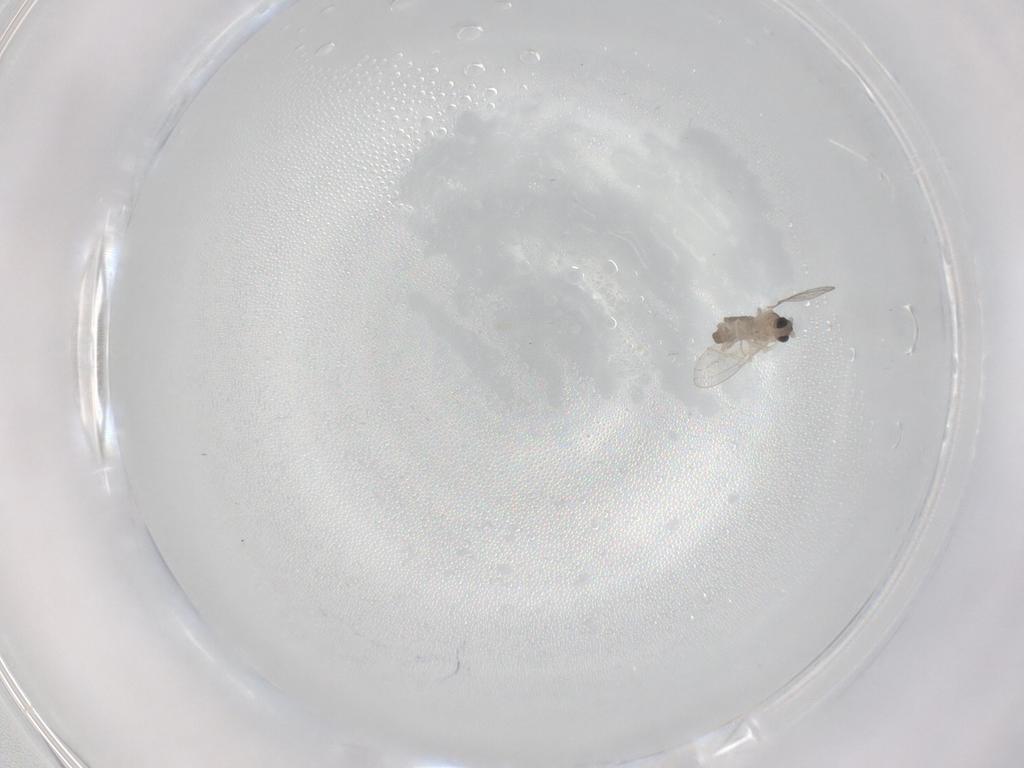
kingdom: Animalia
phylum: Arthropoda
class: Insecta
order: Diptera
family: Cecidomyiidae
